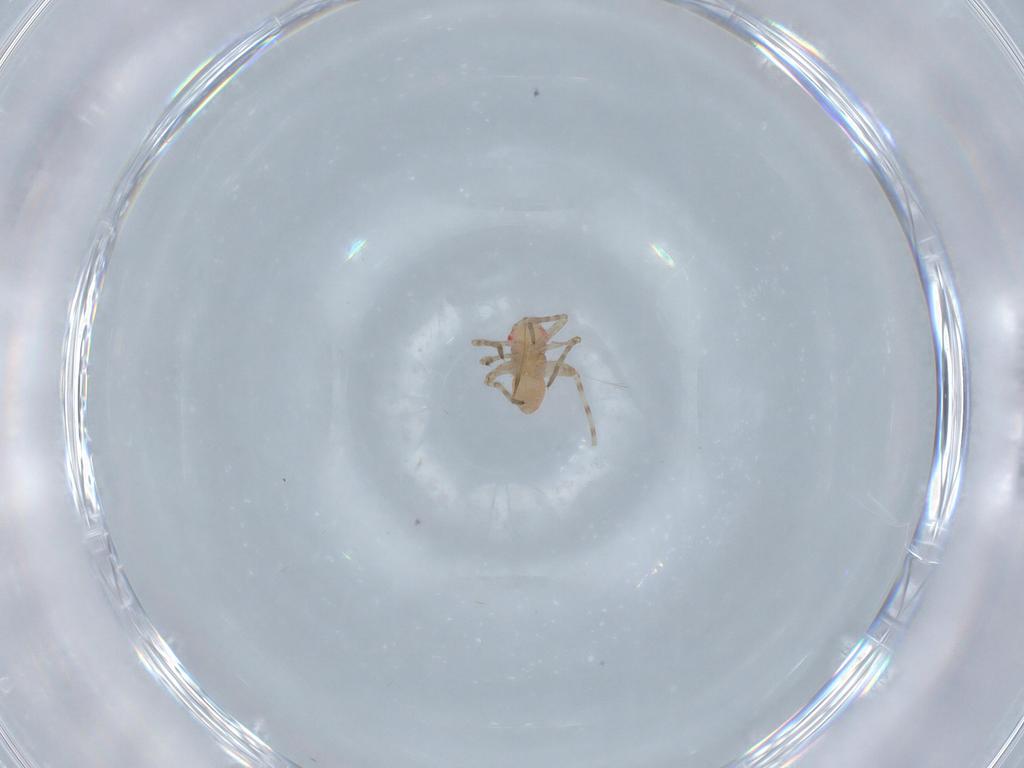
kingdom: Animalia
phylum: Arthropoda
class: Insecta
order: Hemiptera
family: Miridae
